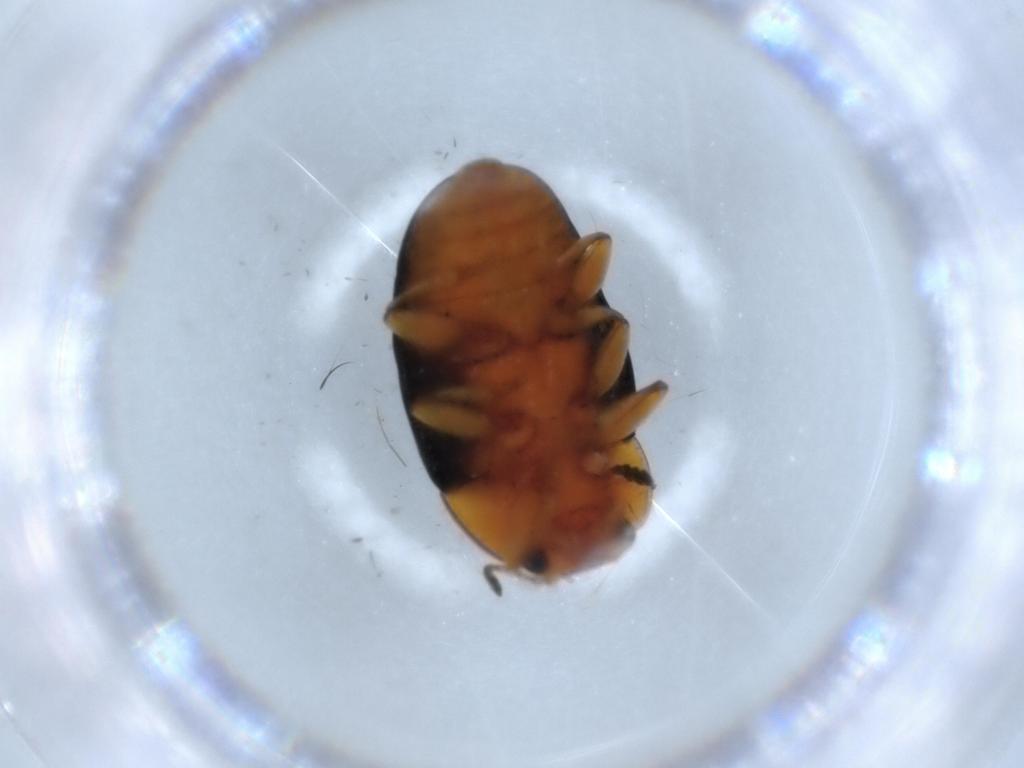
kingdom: Animalia
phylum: Arthropoda
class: Insecta
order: Coleoptera
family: Erotylidae
